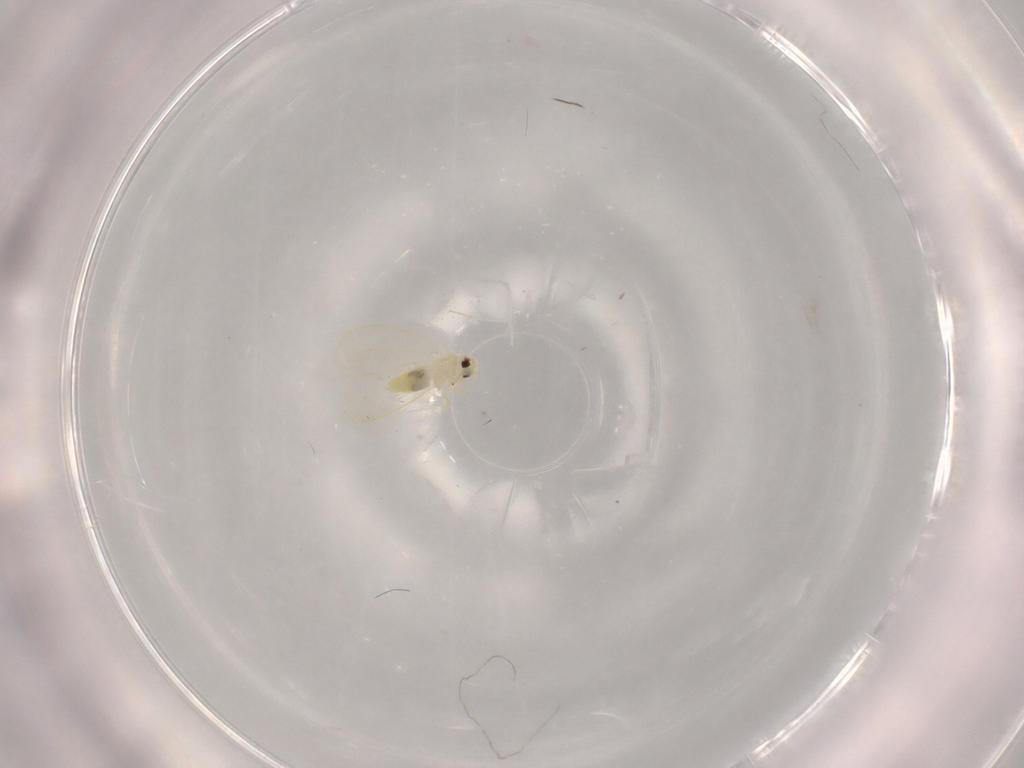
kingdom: Animalia
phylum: Arthropoda
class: Insecta
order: Hemiptera
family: Aleyrodidae
